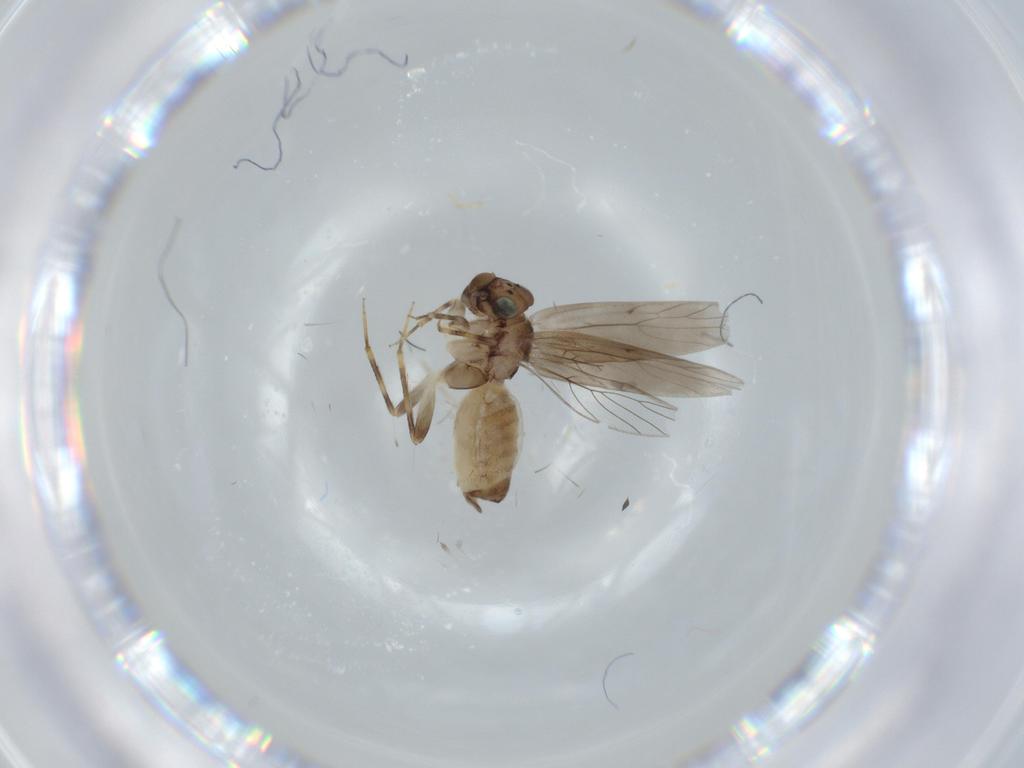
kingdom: Animalia
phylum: Arthropoda
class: Insecta
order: Psocodea
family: Lepidopsocidae
